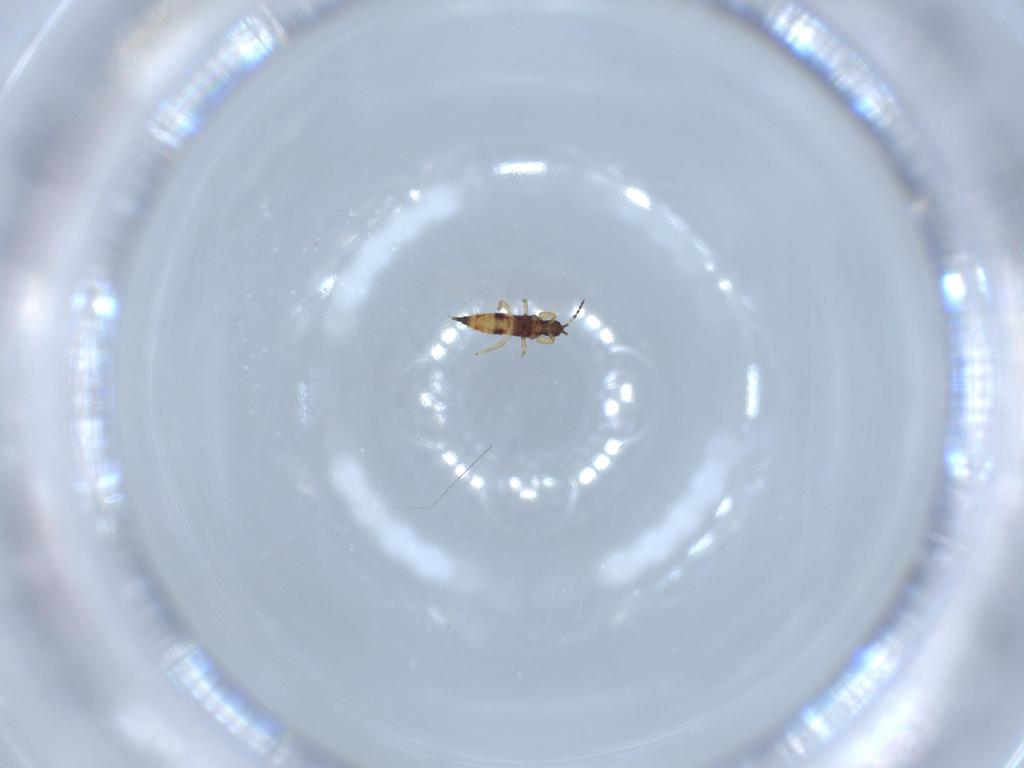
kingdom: Animalia
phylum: Arthropoda
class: Insecta
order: Thysanoptera
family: Phlaeothripidae
